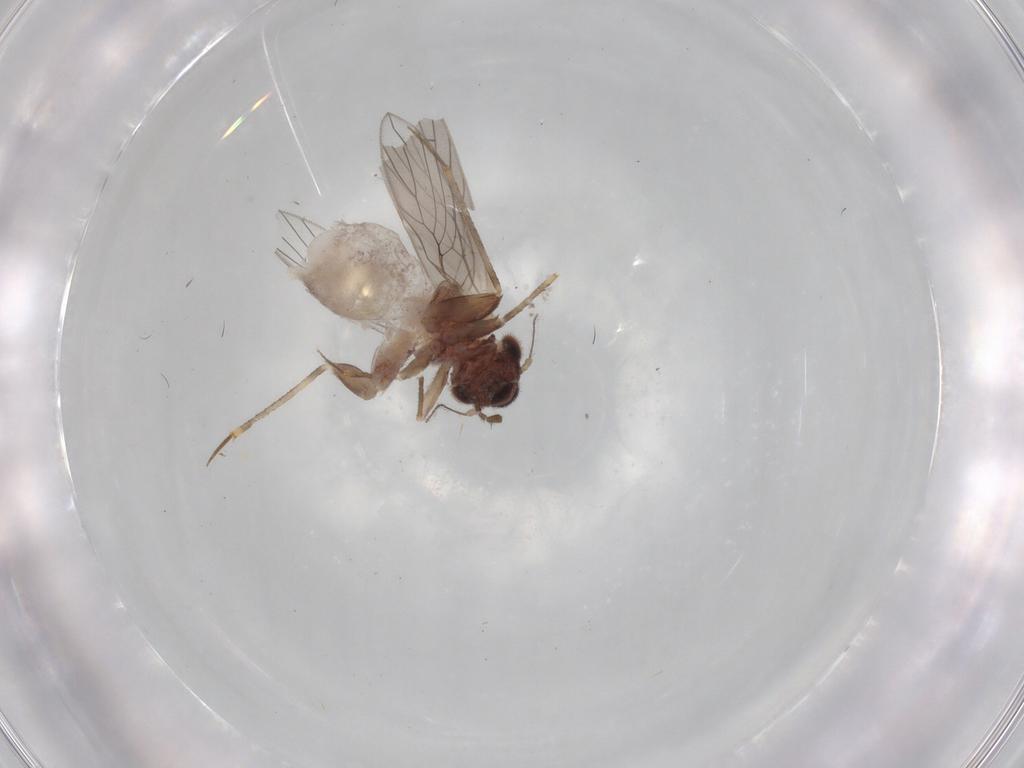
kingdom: Animalia
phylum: Arthropoda
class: Insecta
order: Psocodea
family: Lepidopsocidae
